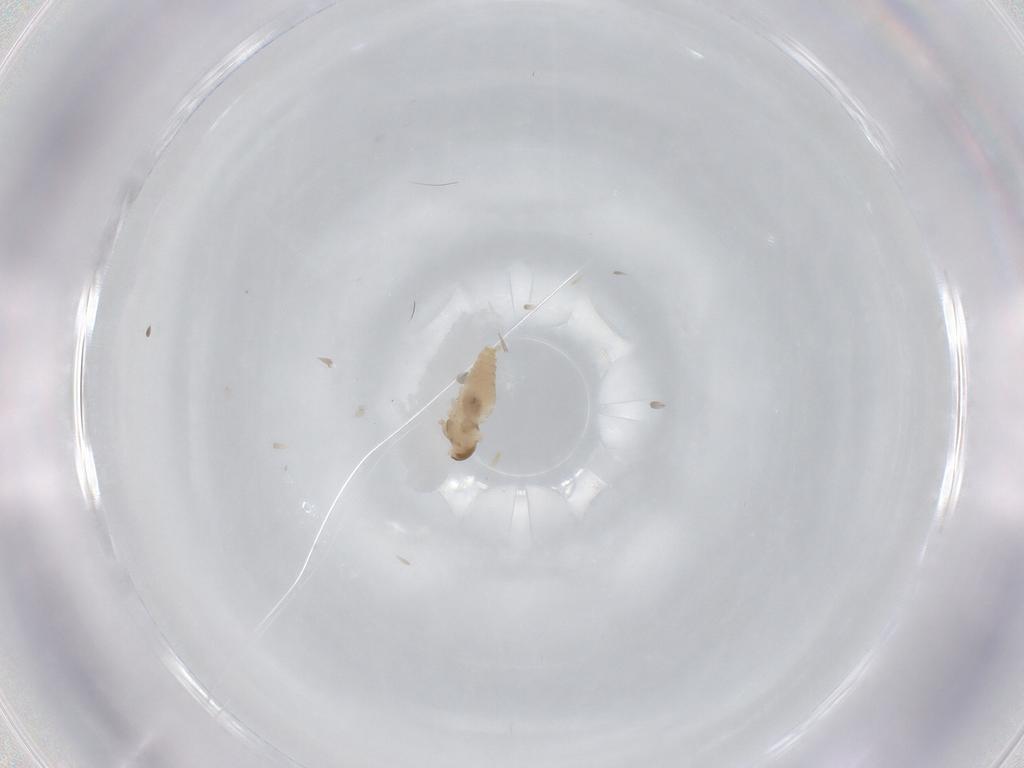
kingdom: Animalia
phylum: Arthropoda
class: Insecta
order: Diptera
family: Cecidomyiidae
